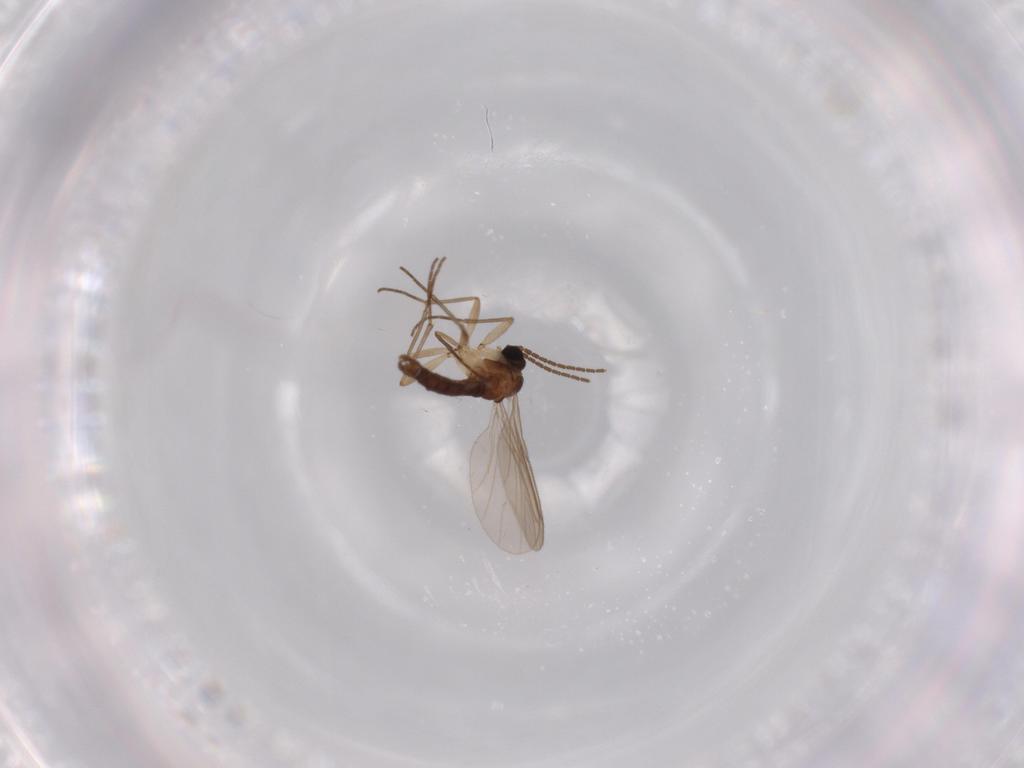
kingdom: Animalia
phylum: Arthropoda
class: Insecta
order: Diptera
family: Sciaridae
